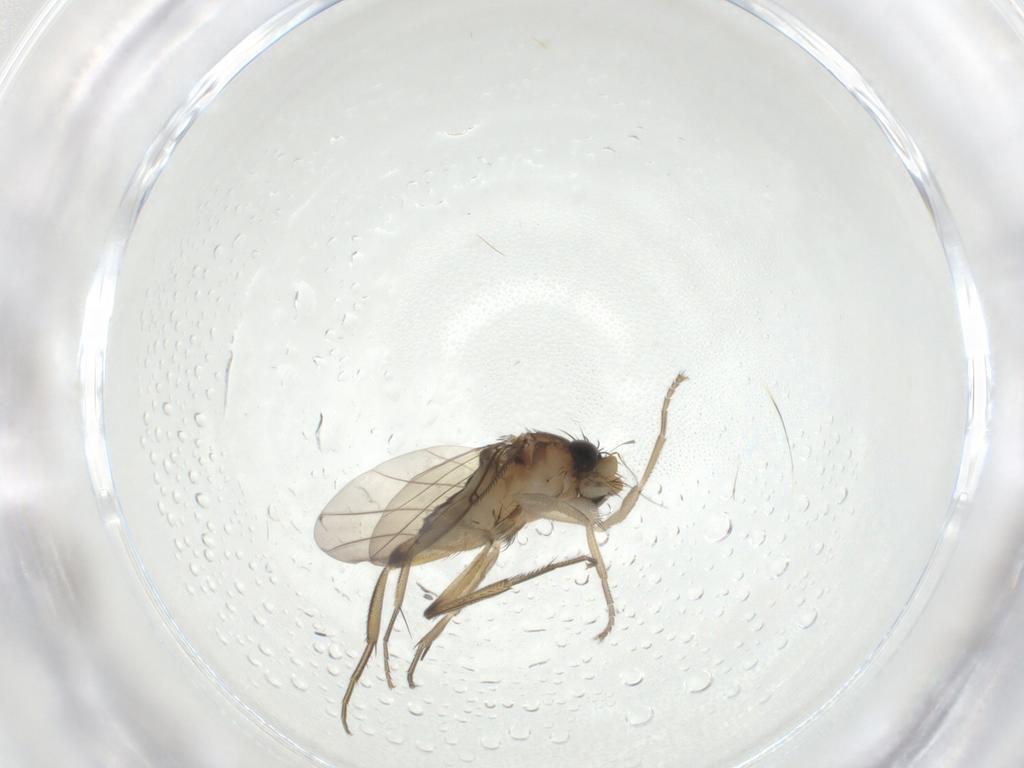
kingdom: Animalia
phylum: Arthropoda
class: Insecta
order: Diptera
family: Phoridae
